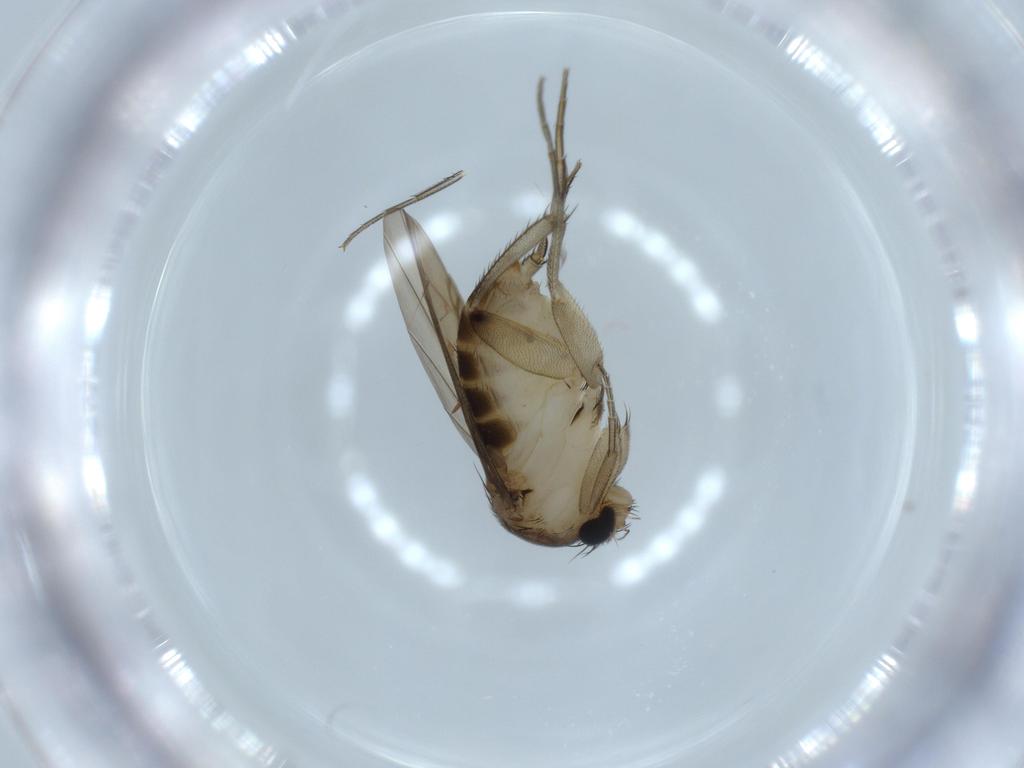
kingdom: Animalia
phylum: Arthropoda
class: Insecta
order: Diptera
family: Phoridae
